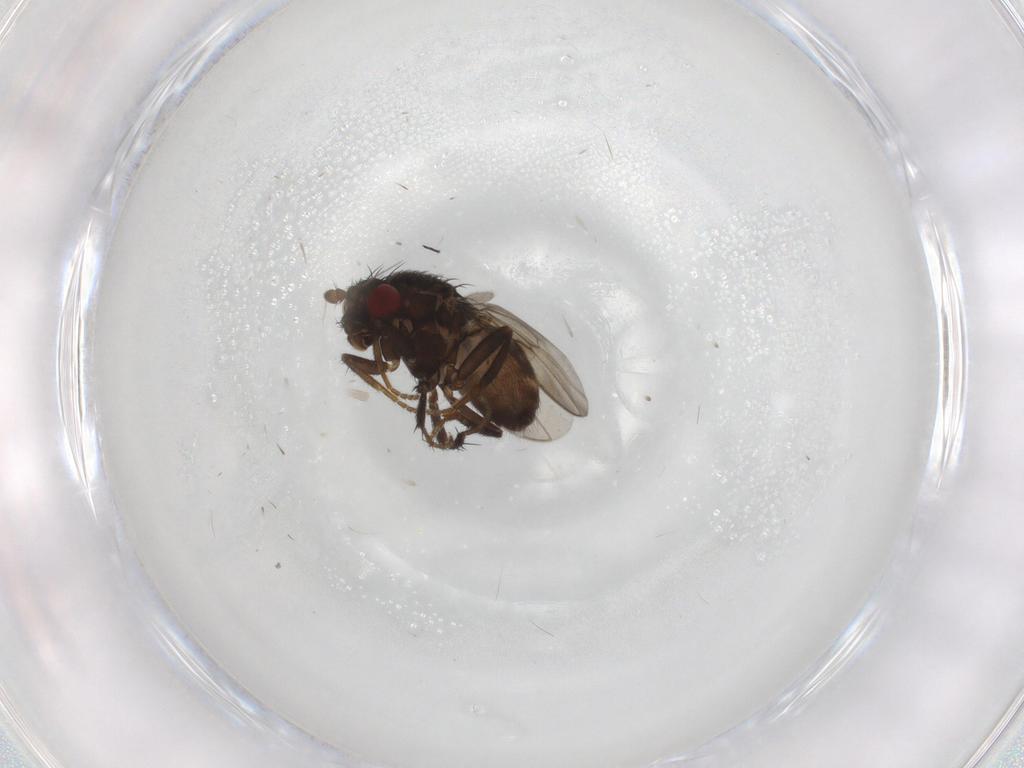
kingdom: Animalia
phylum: Arthropoda
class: Insecta
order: Diptera
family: Sphaeroceridae
